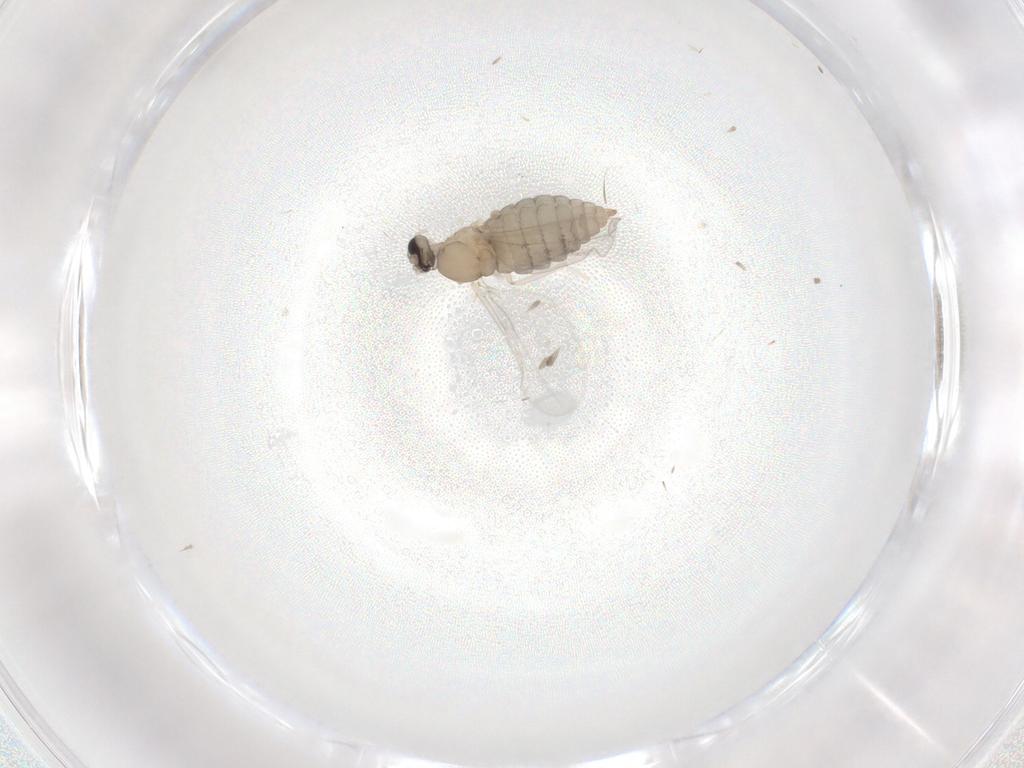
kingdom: Animalia
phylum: Arthropoda
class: Insecta
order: Diptera
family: Cecidomyiidae
